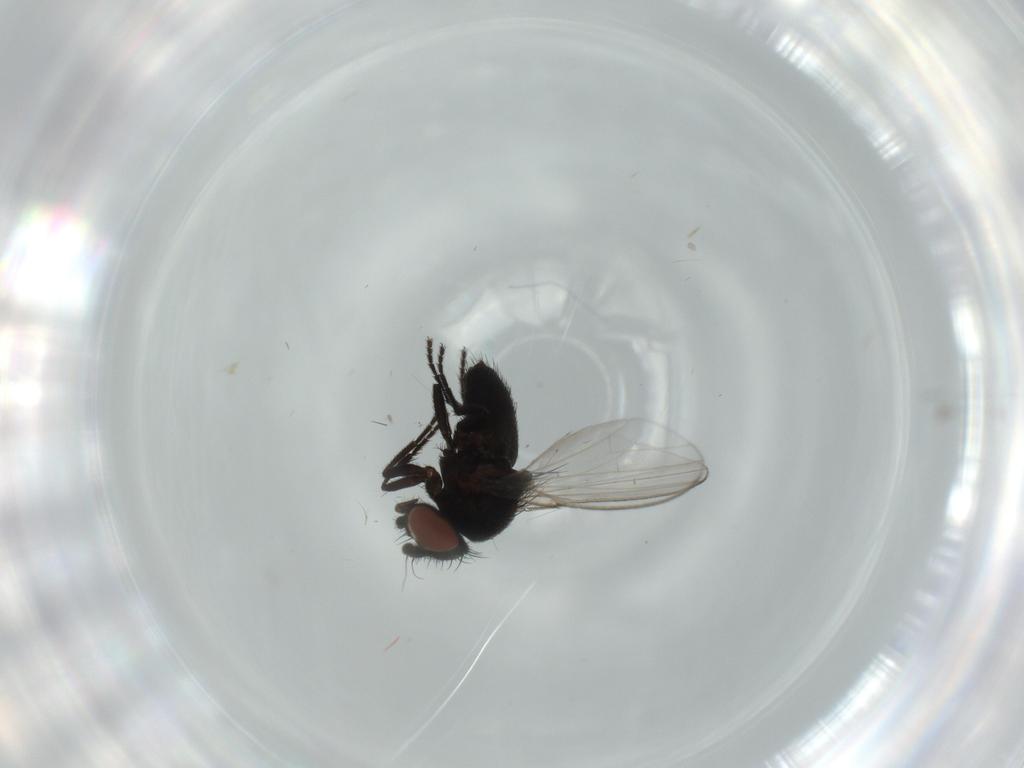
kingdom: Animalia
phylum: Arthropoda
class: Insecta
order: Diptera
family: Milichiidae
